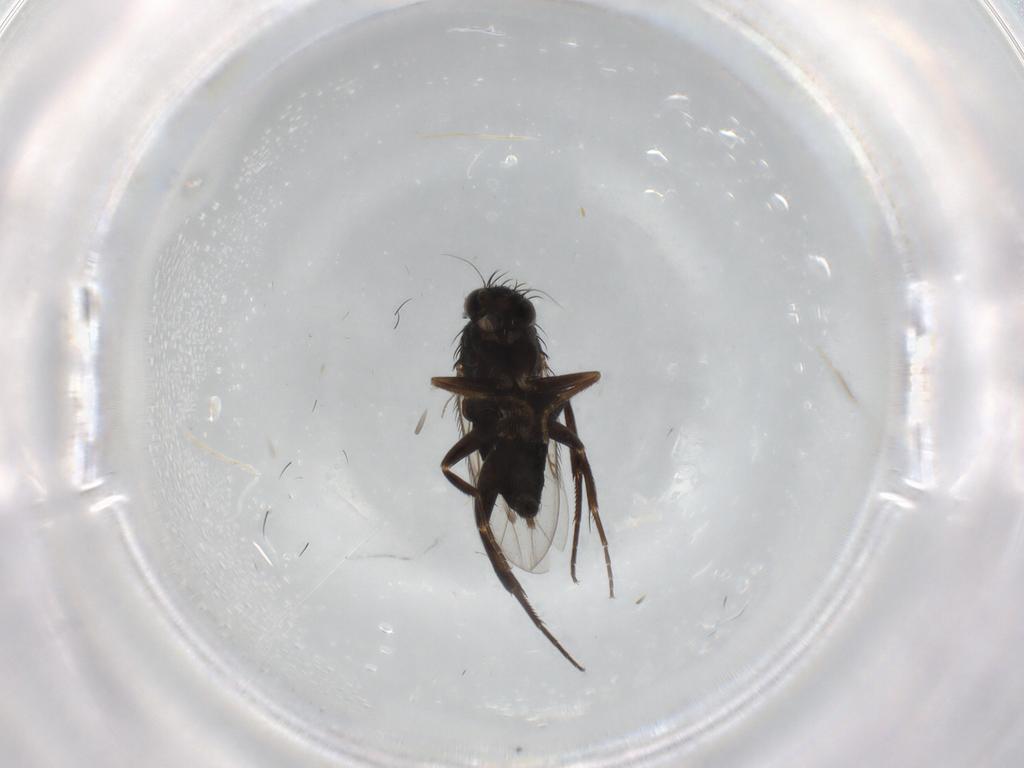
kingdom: Animalia
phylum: Arthropoda
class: Insecta
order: Diptera
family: Phoridae
